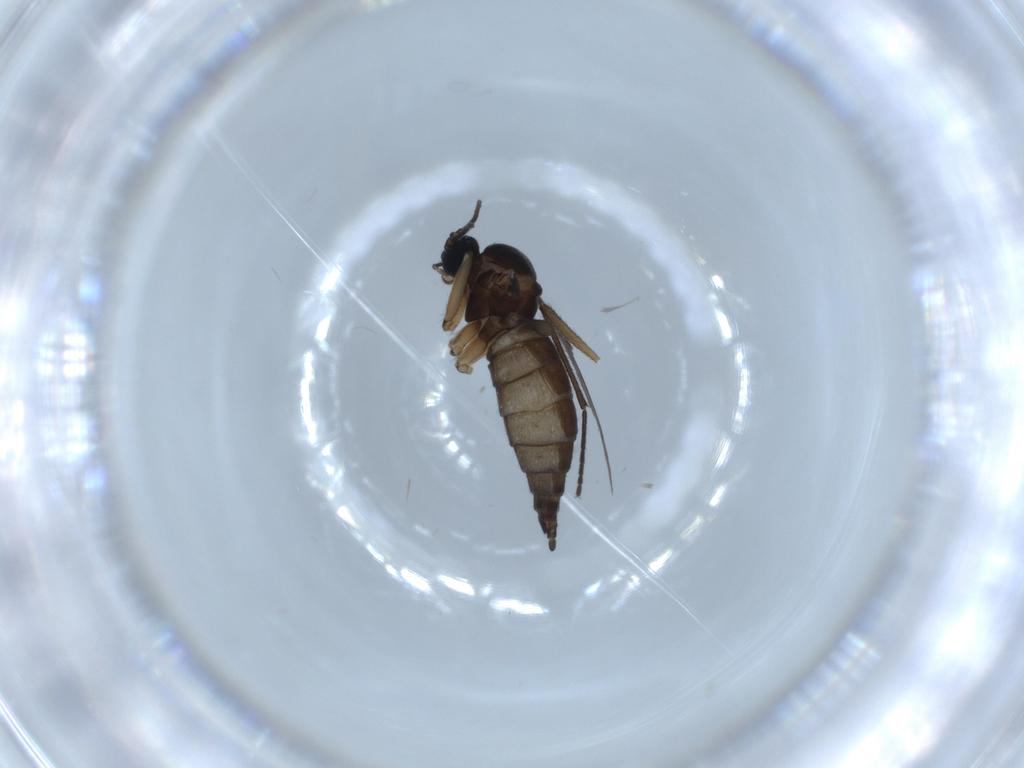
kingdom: Animalia
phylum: Arthropoda
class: Insecta
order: Diptera
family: Sciaridae
